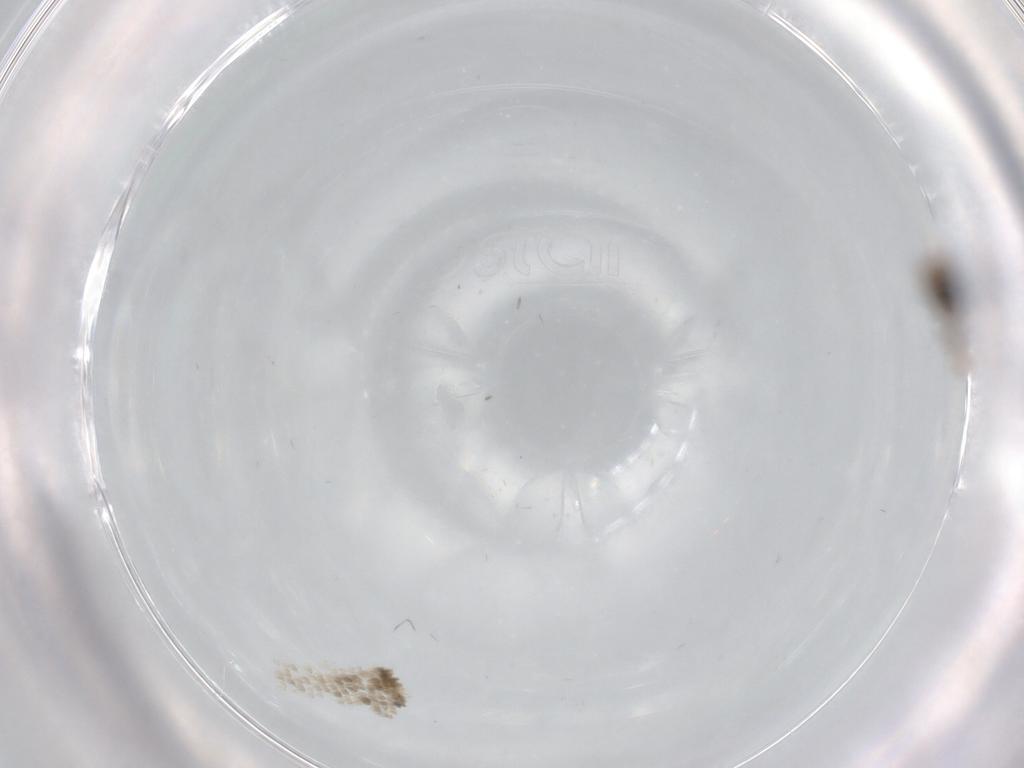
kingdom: Animalia
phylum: Arthropoda
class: Insecta
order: Diptera
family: Psychodidae
